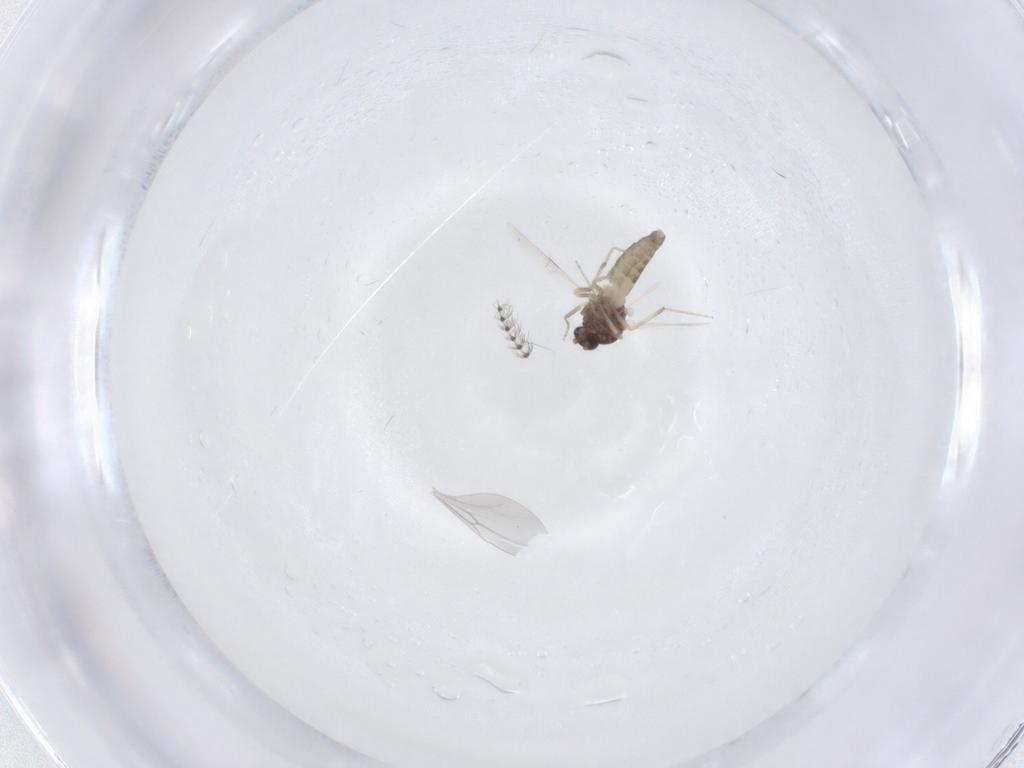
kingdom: Animalia
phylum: Arthropoda
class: Insecta
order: Diptera
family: Ceratopogonidae
